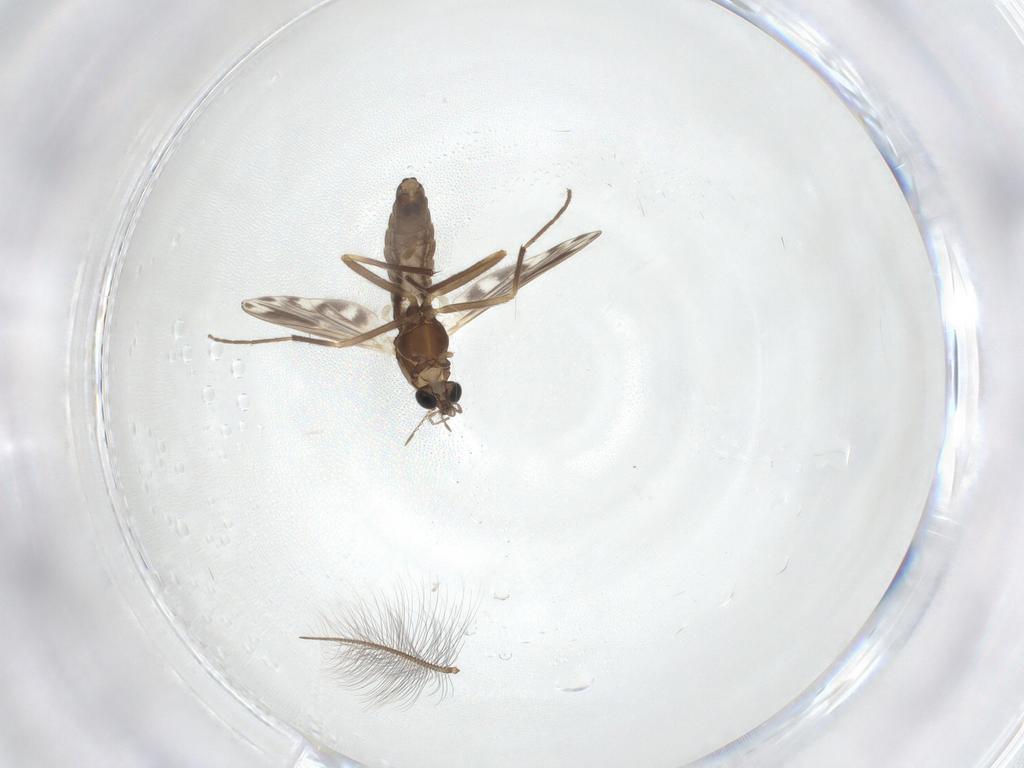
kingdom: Animalia
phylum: Arthropoda
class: Insecta
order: Diptera
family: Chironomidae
